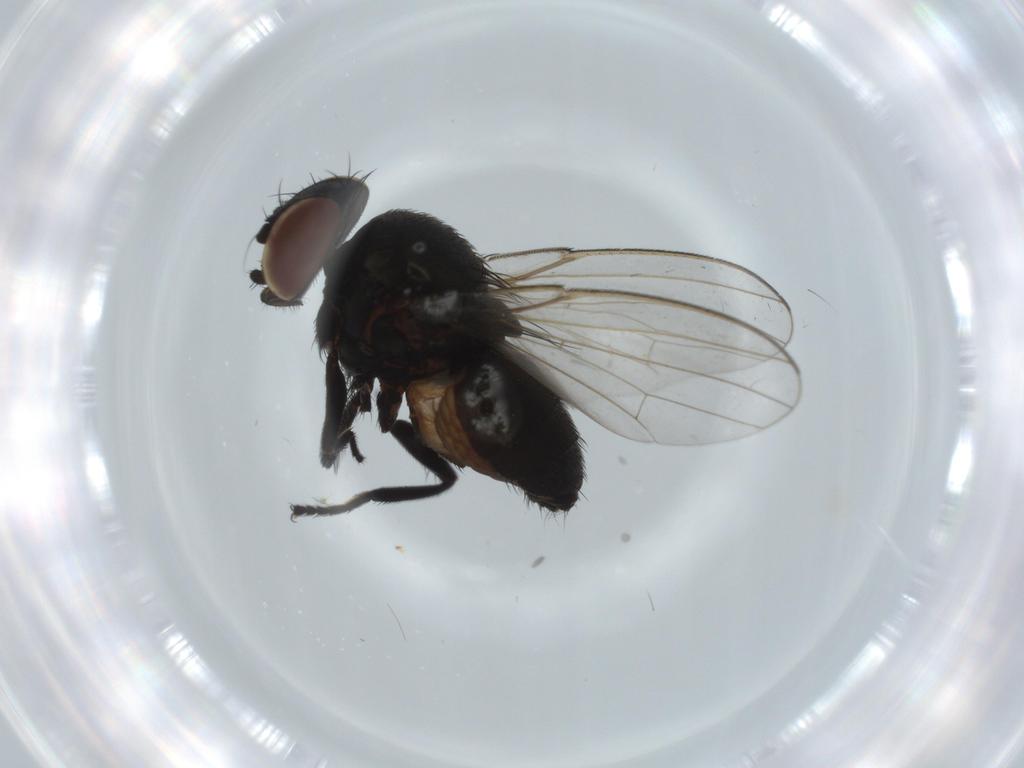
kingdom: Animalia
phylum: Arthropoda
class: Insecta
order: Diptera
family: Milichiidae
